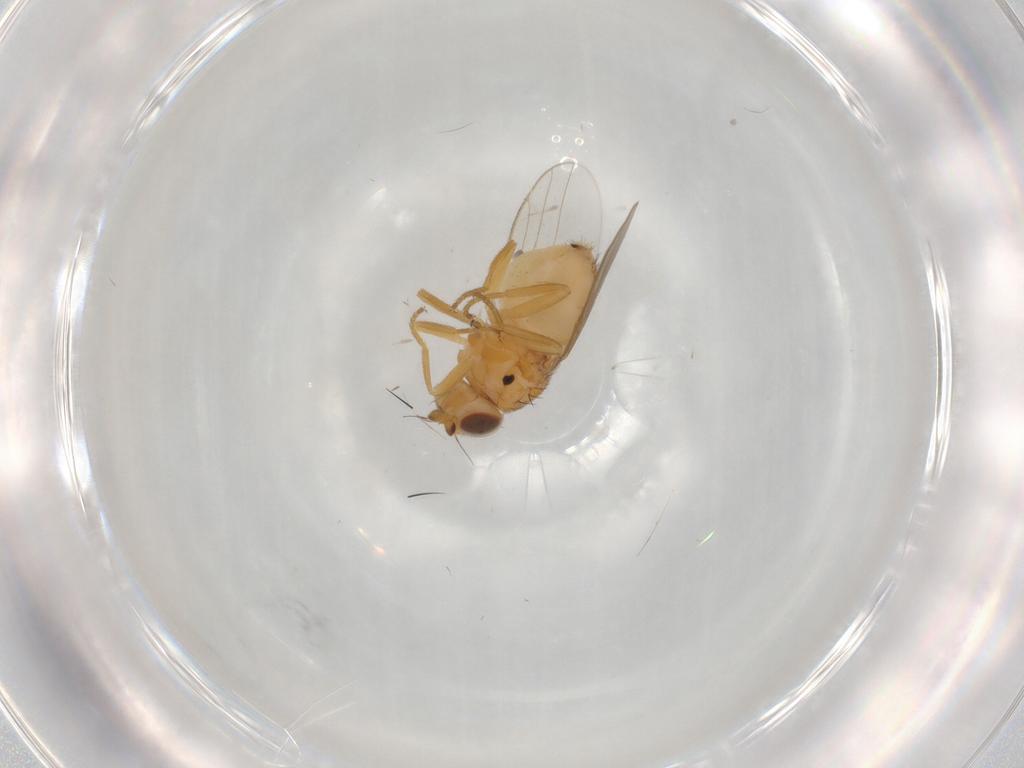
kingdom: Animalia
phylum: Arthropoda
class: Insecta
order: Diptera
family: Chloropidae
